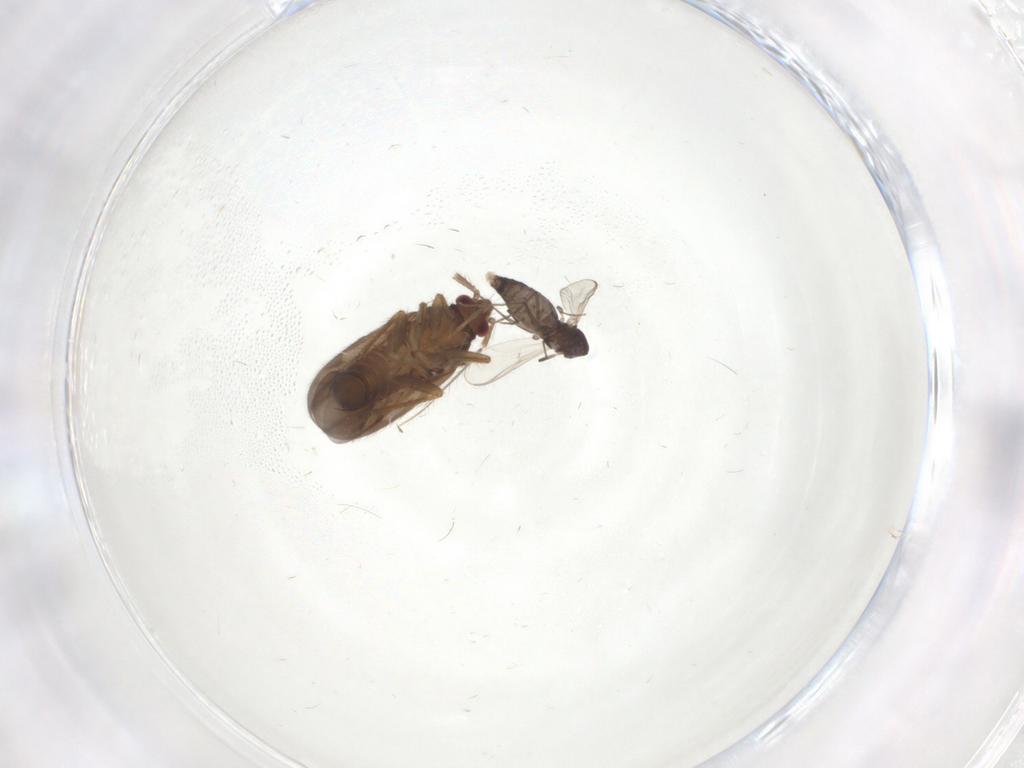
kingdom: Animalia
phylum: Arthropoda
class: Insecta
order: Hemiptera
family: Ceratocombidae
